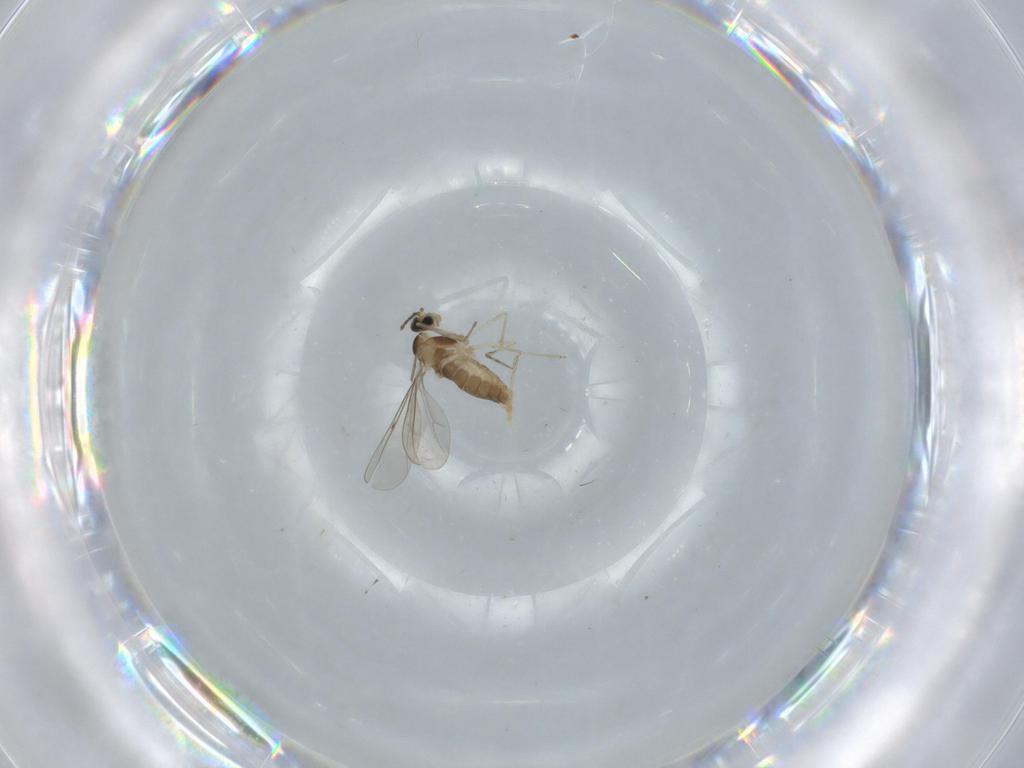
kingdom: Animalia
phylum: Arthropoda
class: Insecta
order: Diptera
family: Cecidomyiidae
